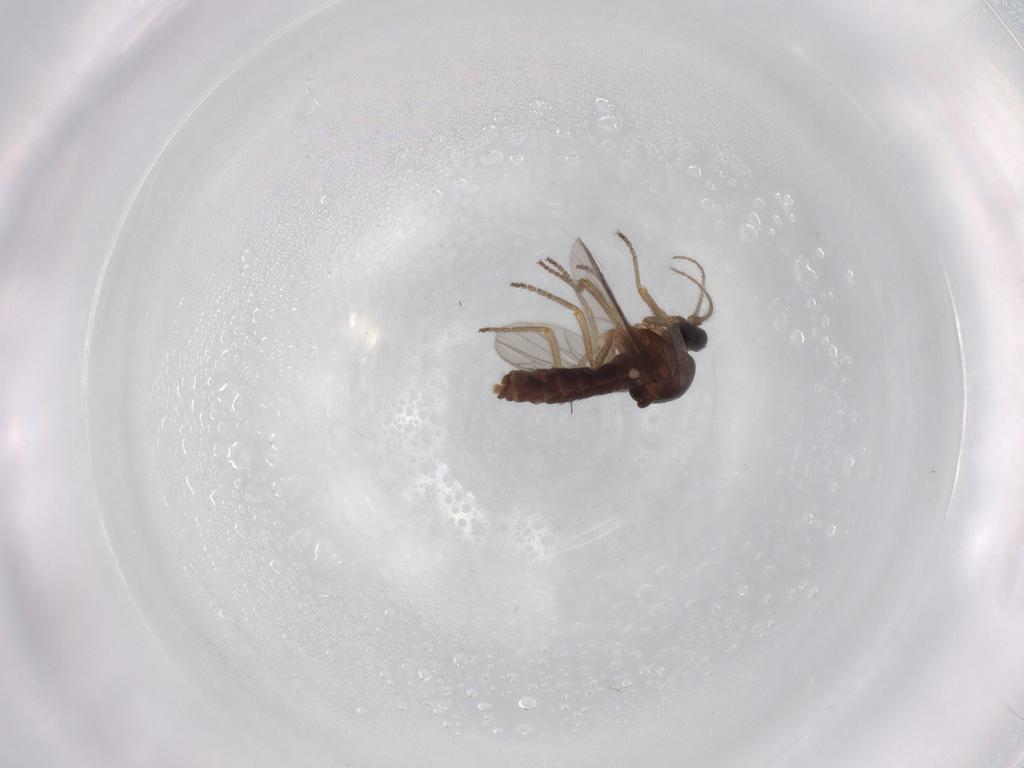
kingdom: Animalia
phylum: Arthropoda
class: Insecta
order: Diptera
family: Ceratopogonidae
